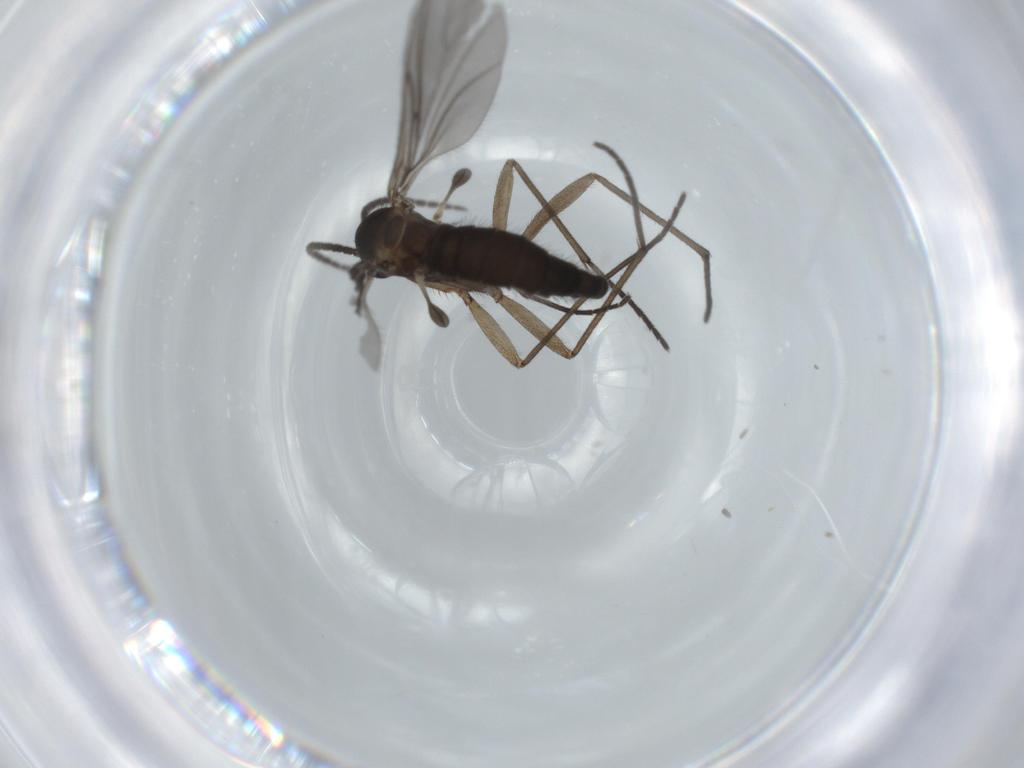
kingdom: Animalia
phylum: Arthropoda
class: Insecta
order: Diptera
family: Sciaridae
